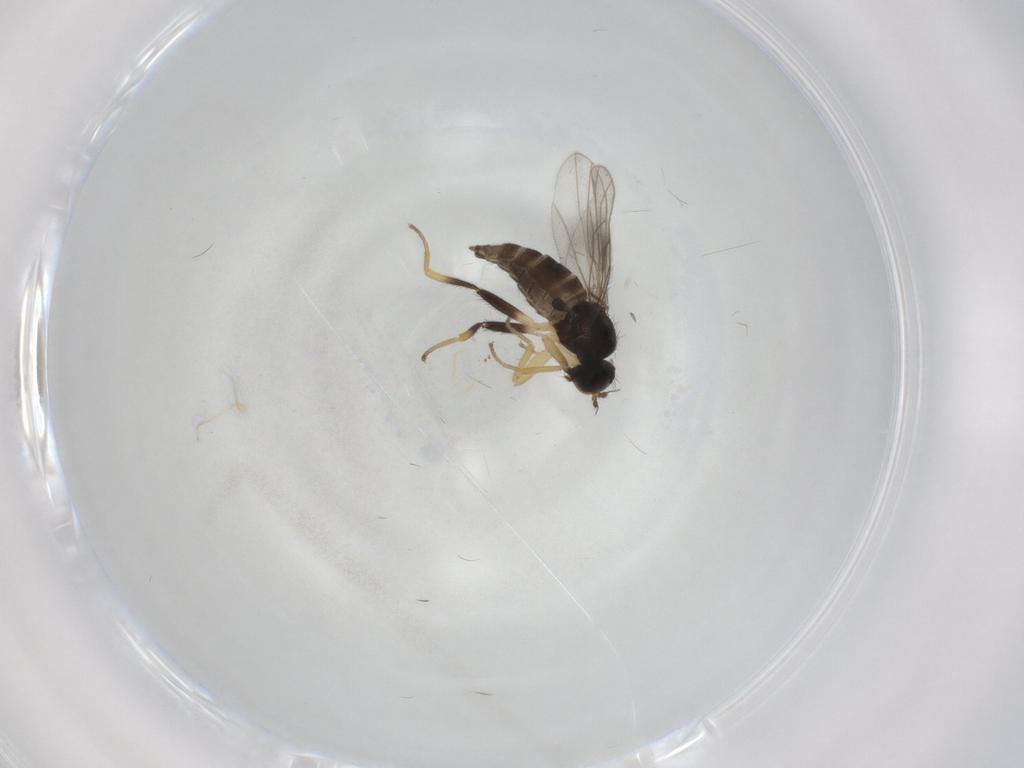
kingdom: Animalia
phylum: Arthropoda
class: Insecta
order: Diptera
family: Hybotidae
